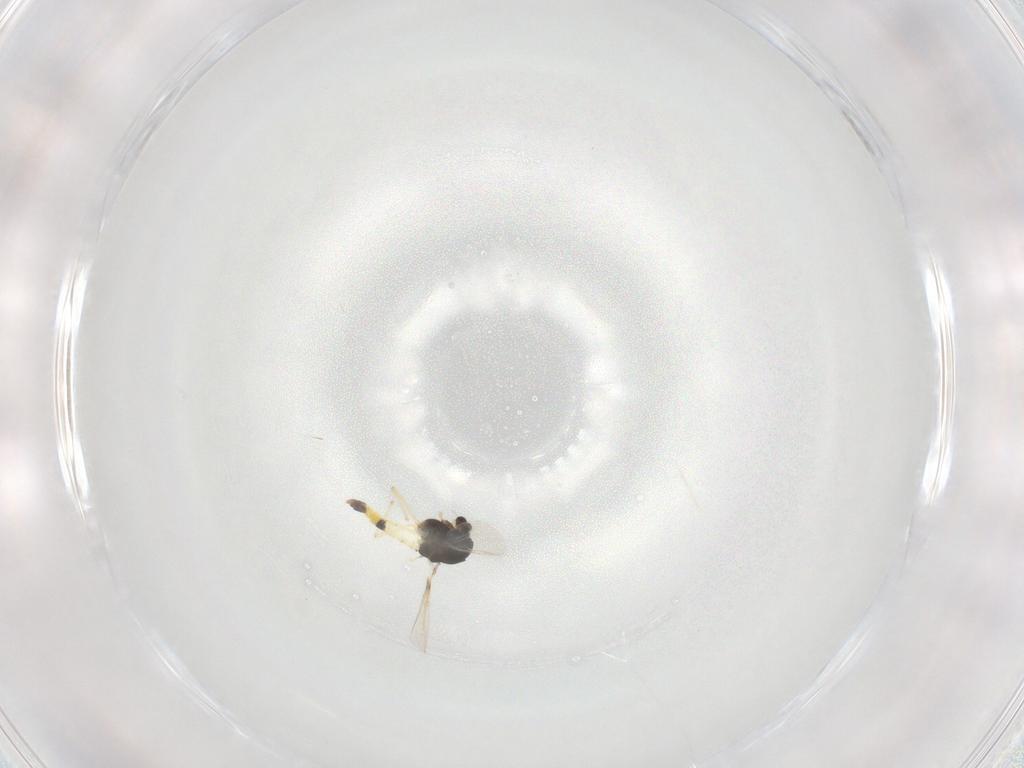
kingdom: Animalia
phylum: Arthropoda
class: Insecta
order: Diptera
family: Chironomidae
